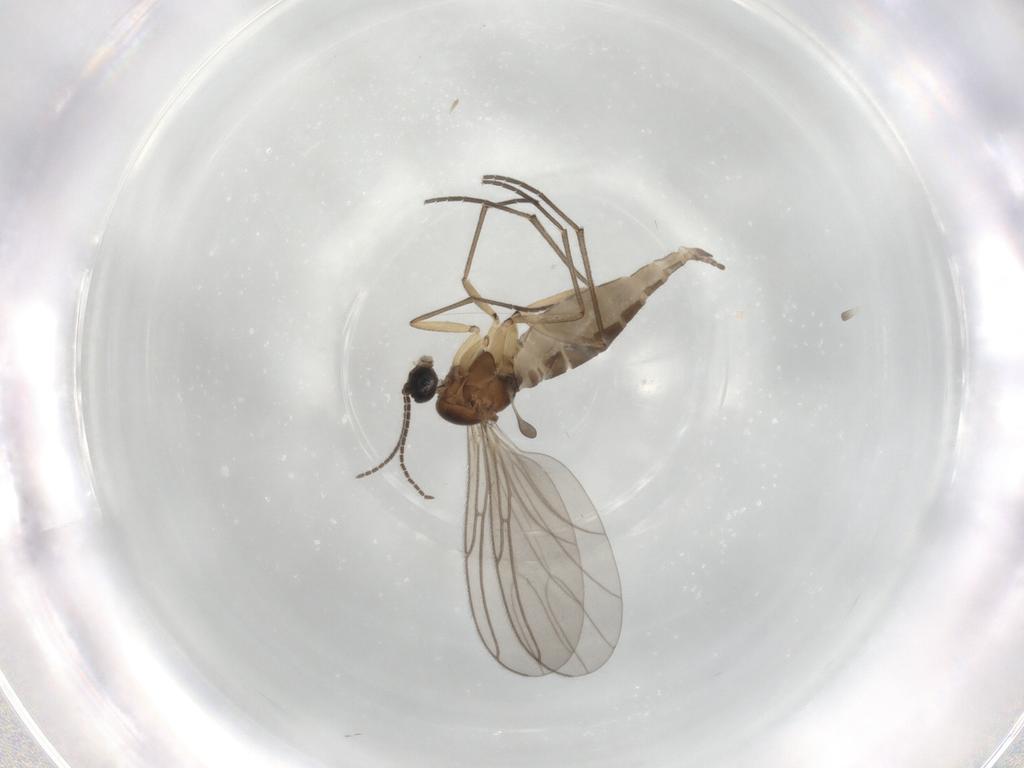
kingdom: Animalia
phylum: Arthropoda
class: Insecta
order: Diptera
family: Sciaridae
